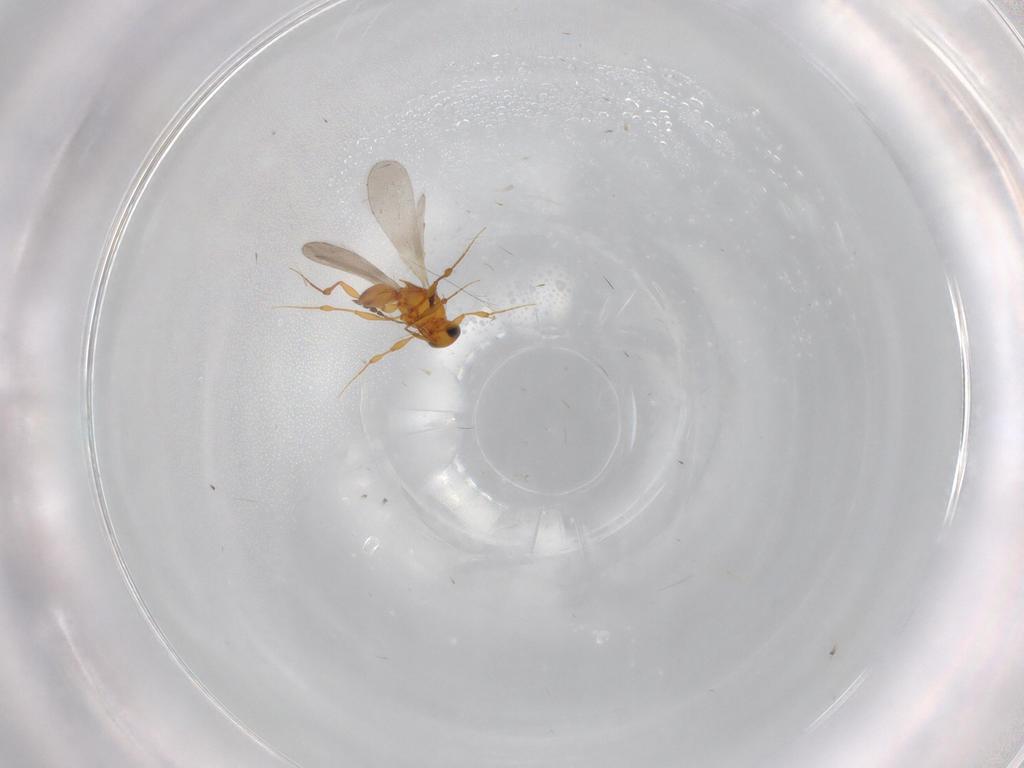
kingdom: Animalia
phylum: Arthropoda
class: Insecta
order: Hymenoptera
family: Platygastridae
